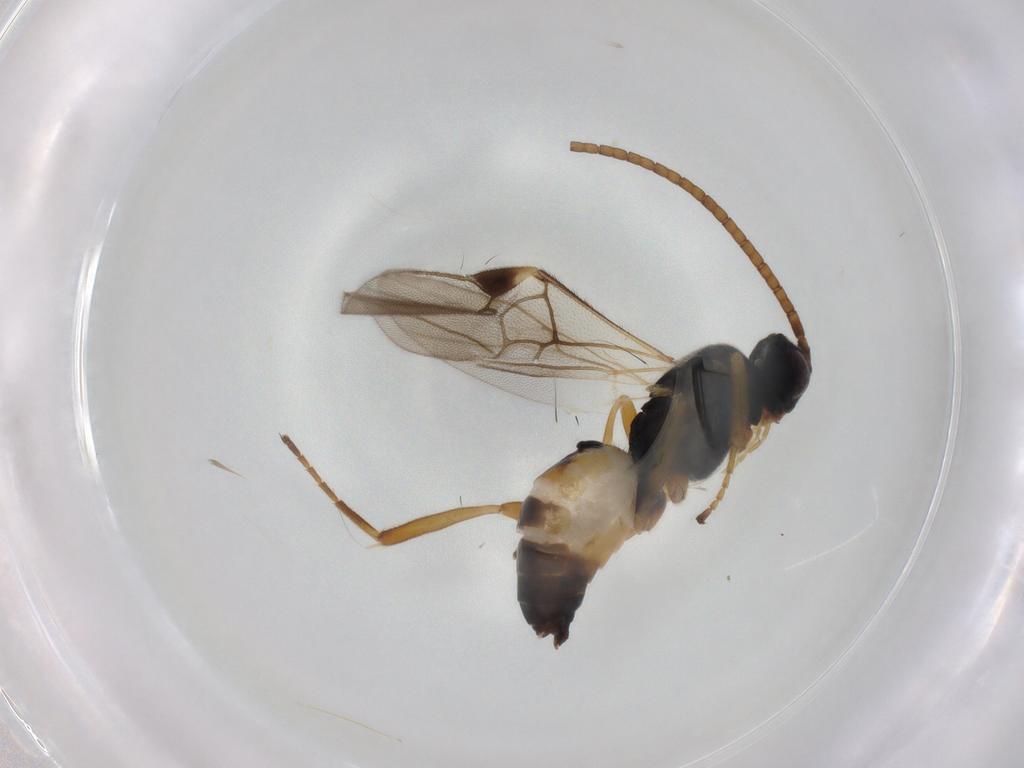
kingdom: Animalia
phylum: Arthropoda
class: Insecta
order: Hymenoptera
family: Braconidae
